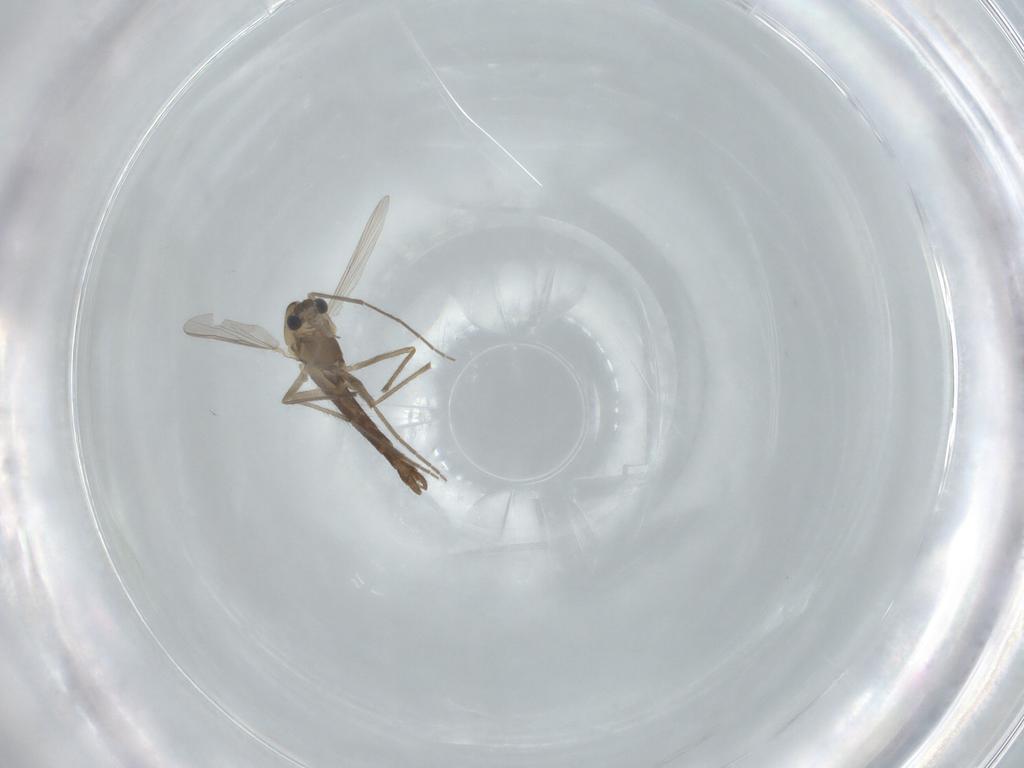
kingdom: Animalia
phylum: Arthropoda
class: Insecta
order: Diptera
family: Chironomidae
